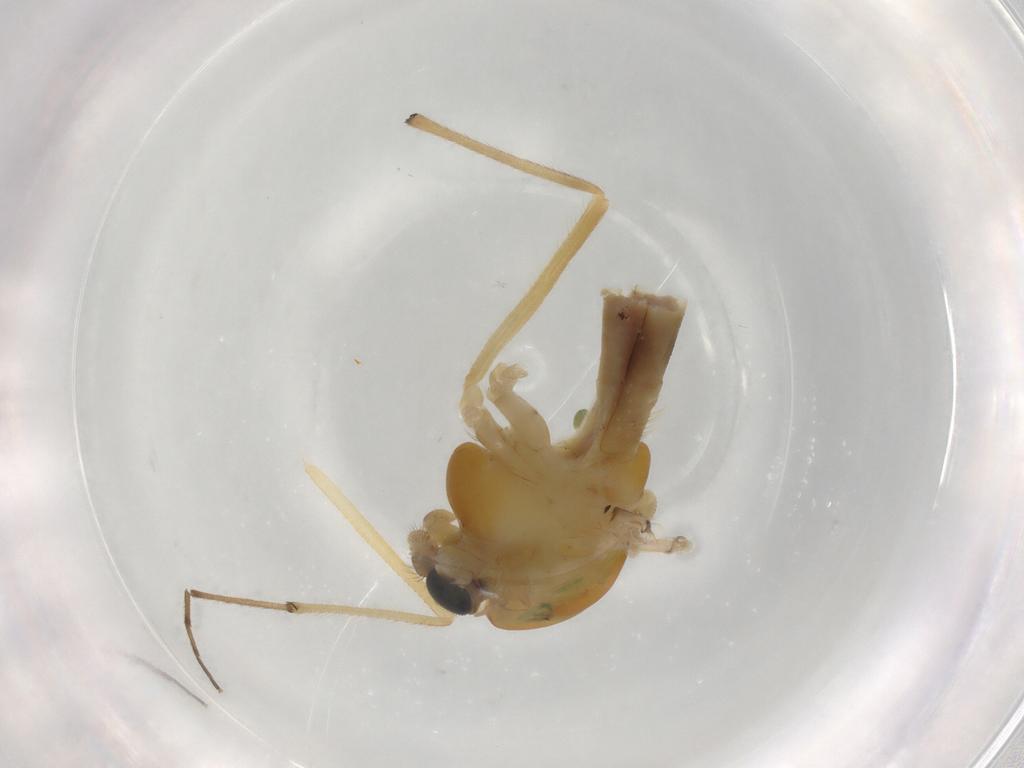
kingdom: Animalia
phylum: Arthropoda
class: Insecta
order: Diptera
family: Chironomidae
